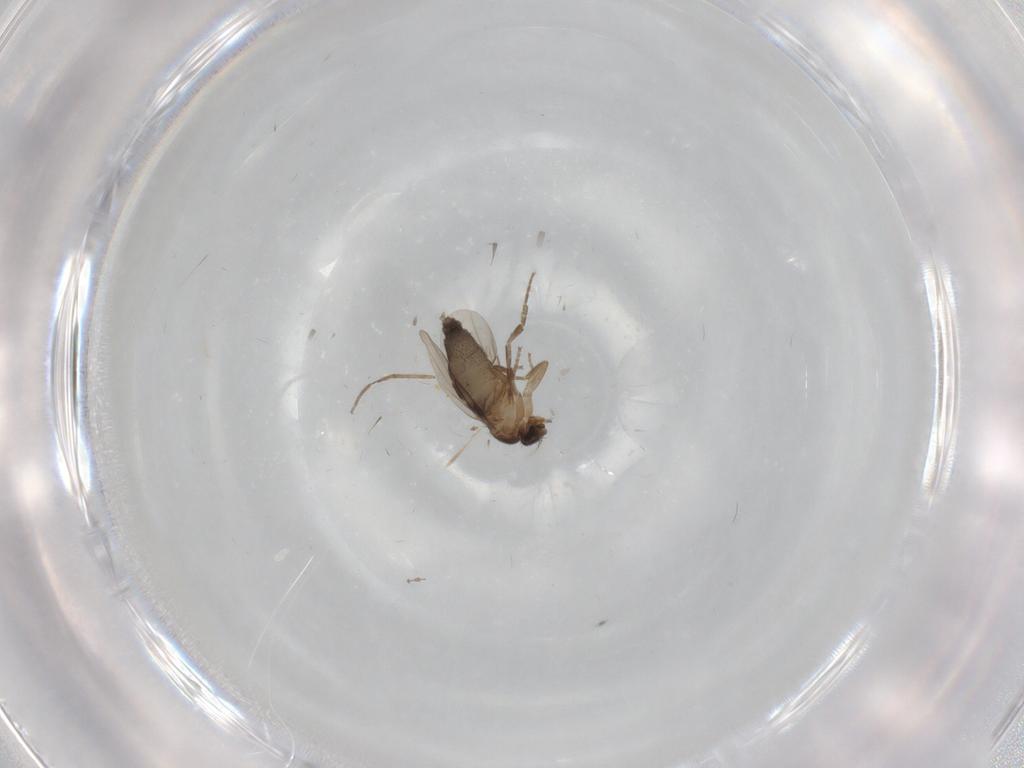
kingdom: Animalia
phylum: Arthropoda
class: Insecta
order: Diptera
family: Phoridae
